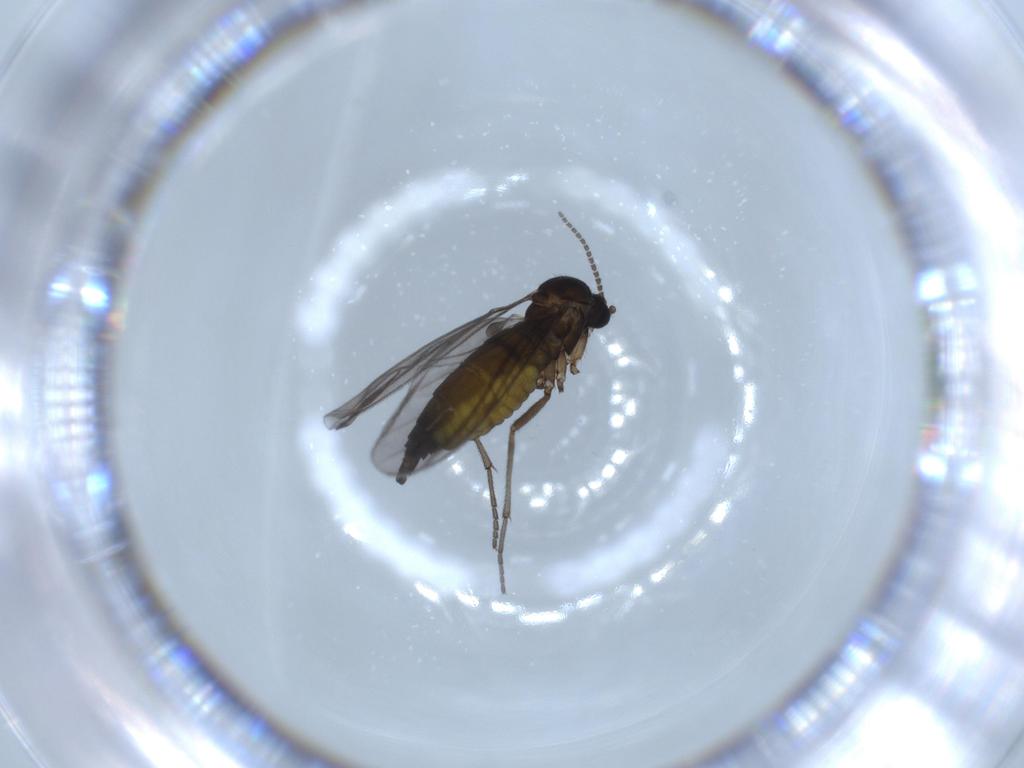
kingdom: Animalia
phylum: Arthropoda
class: Insecta
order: Diptera
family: Sciaridae
